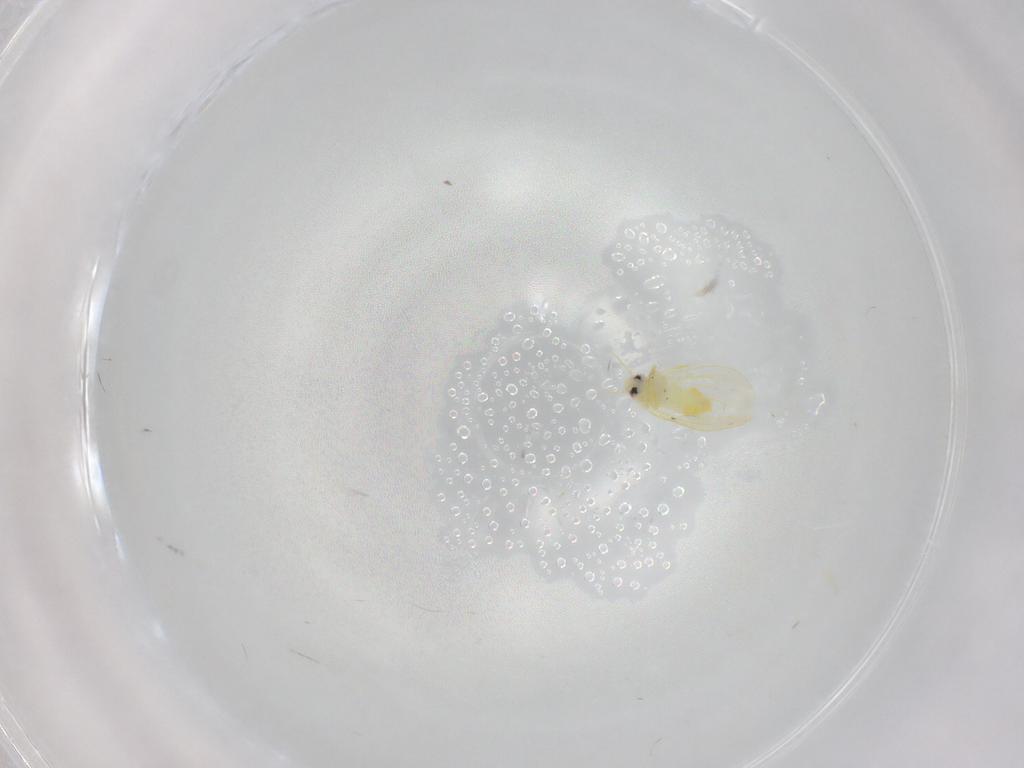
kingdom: Animalia
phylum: Arthropoda
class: Insecta
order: Hemiptera
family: Aleyrodidae
